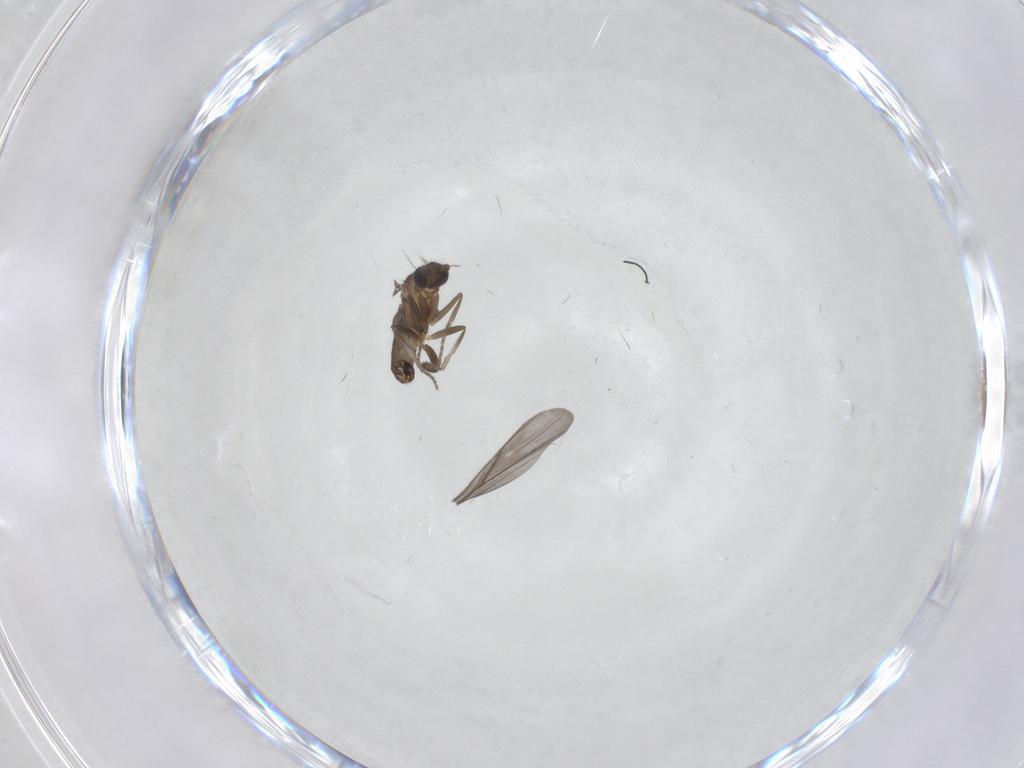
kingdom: Animalia
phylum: Arthropoda
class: Insecta
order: Diptera
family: Phoridae
